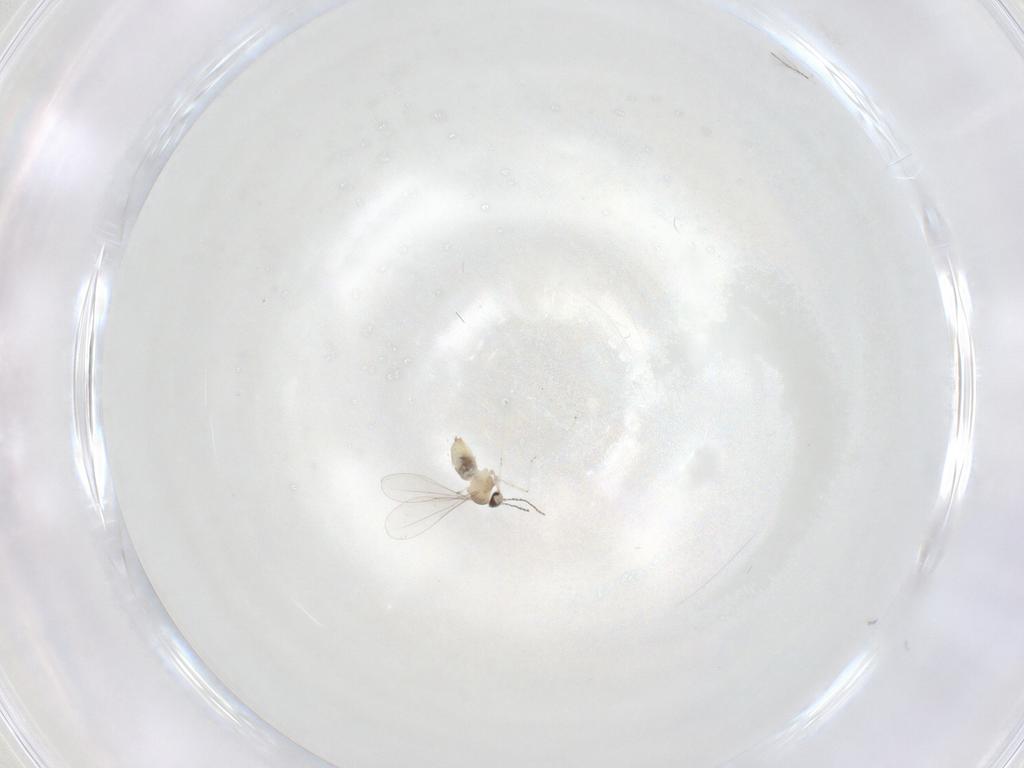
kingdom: Animalia
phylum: Arthropoda
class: Insecta
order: Diptera
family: Cecidomyiidae
